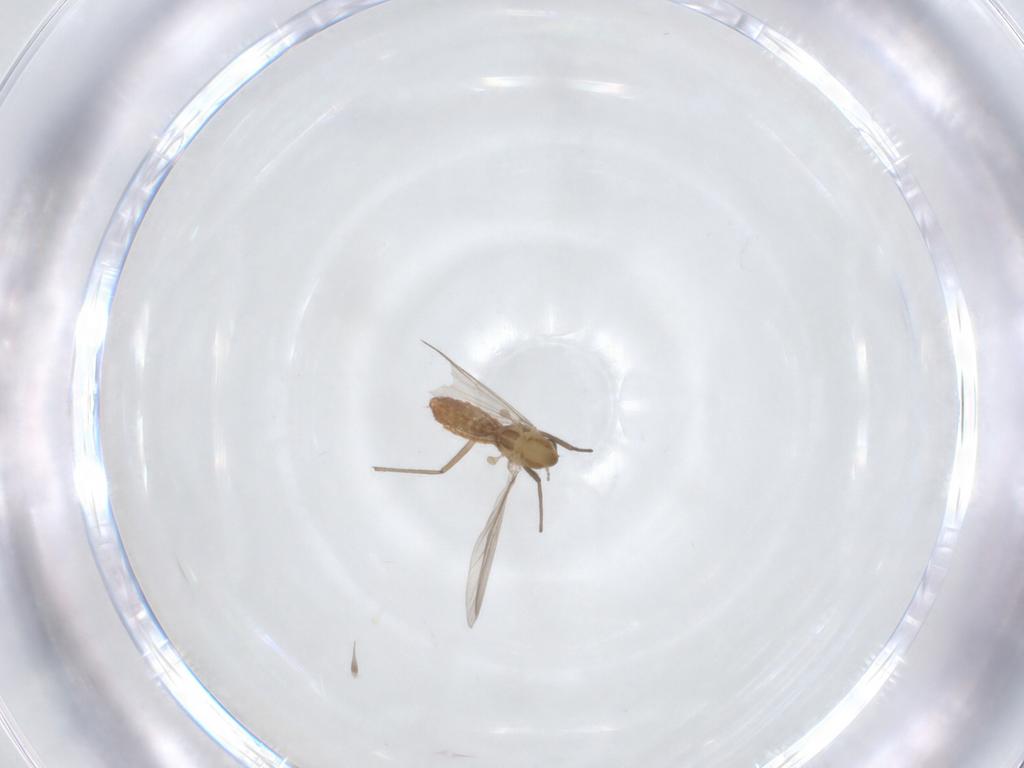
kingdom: Animalia
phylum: Arthropoda
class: Insecta
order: Diptera
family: Chironomidae
